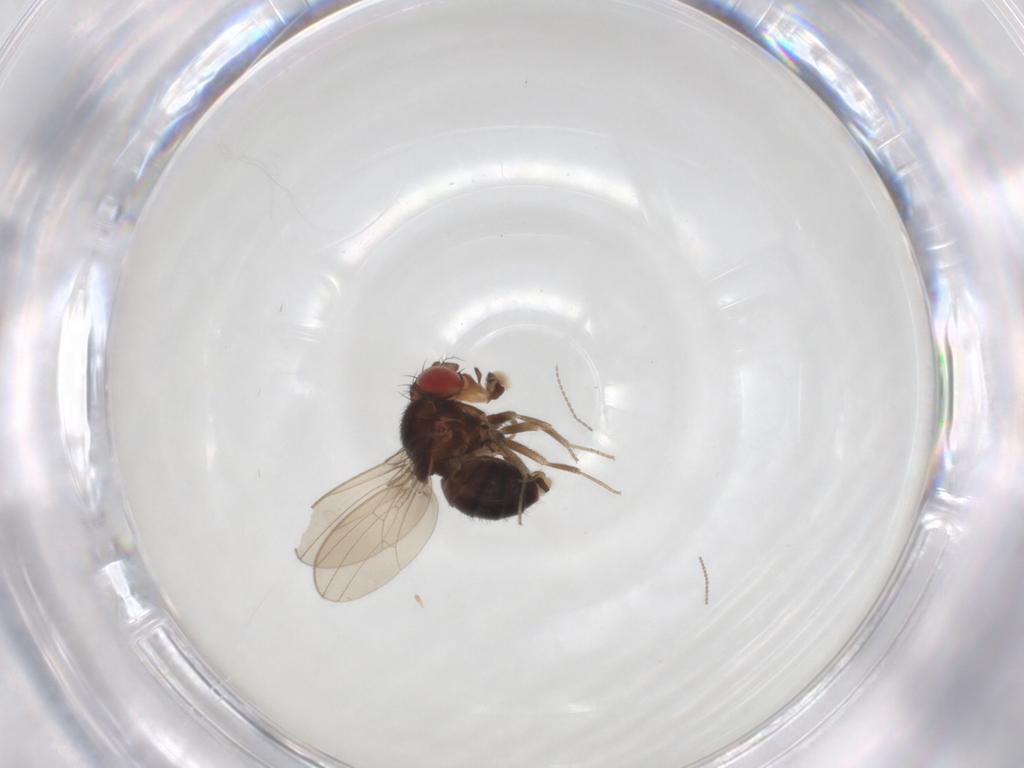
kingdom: Animalia
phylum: Arthropoda
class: Insecta
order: Diptera
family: Drosophilidae
